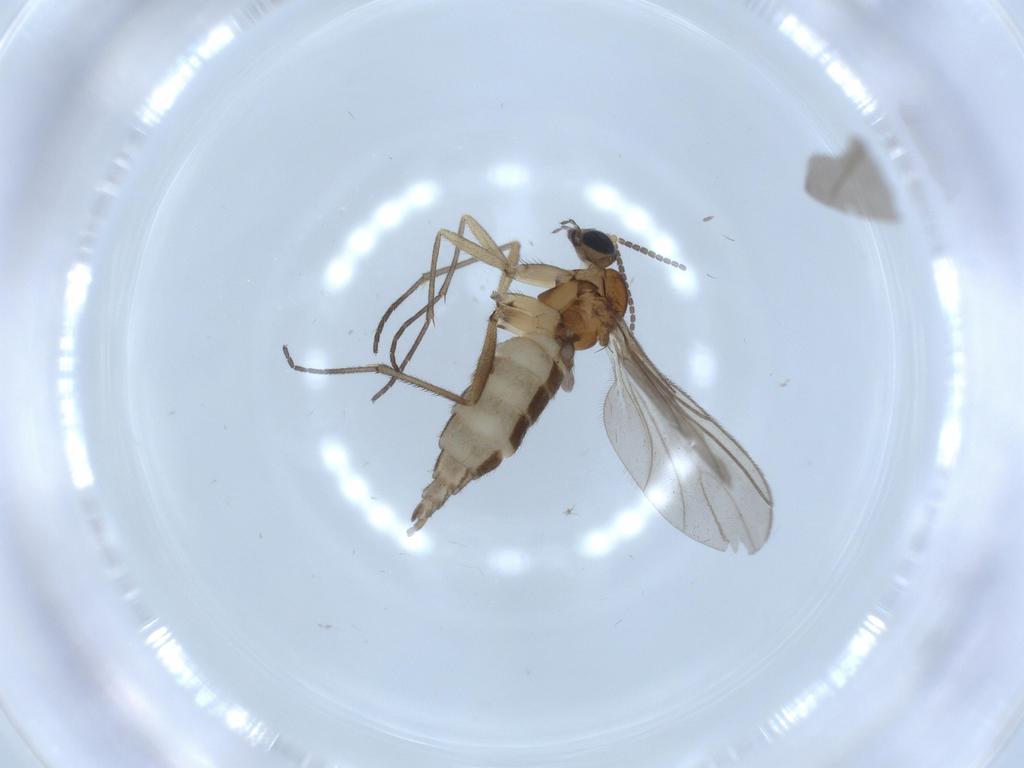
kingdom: Animalia
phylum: Arthropoda
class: Insecta
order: Diptera
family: Sciaridae
